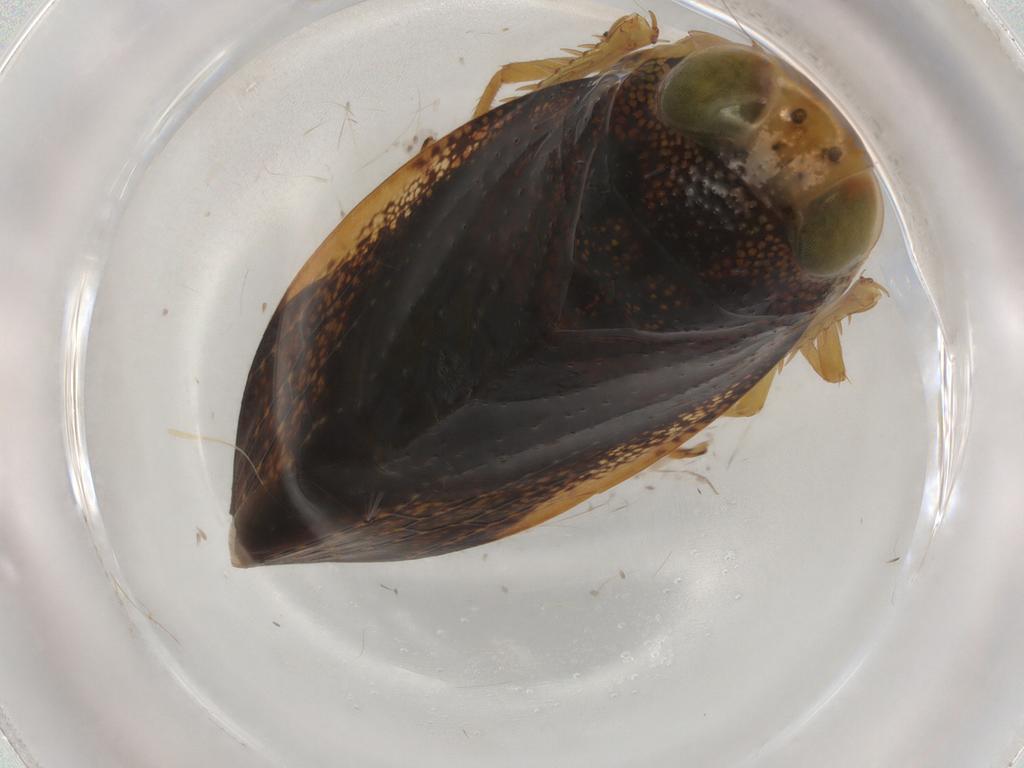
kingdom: Animalia
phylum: Arthropoda
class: Insecta
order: Hemiptera
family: Cicadellidae
